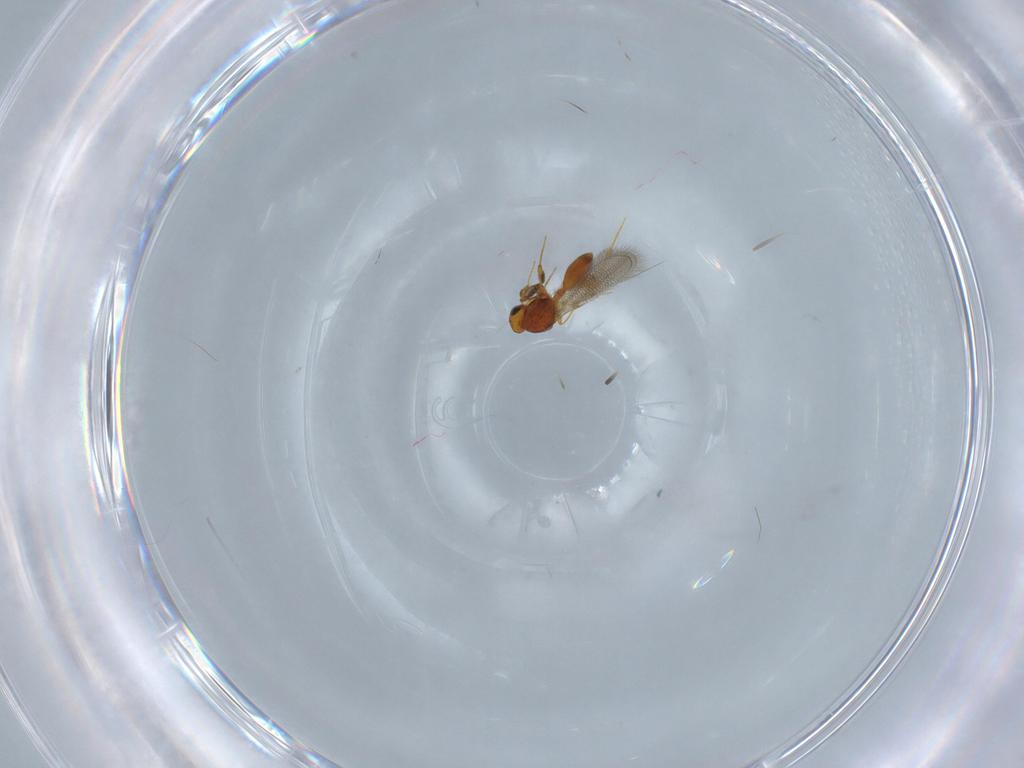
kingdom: Animalia
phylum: Arthropoda
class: Insecta
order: Hymenoptera
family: Platygastridae
